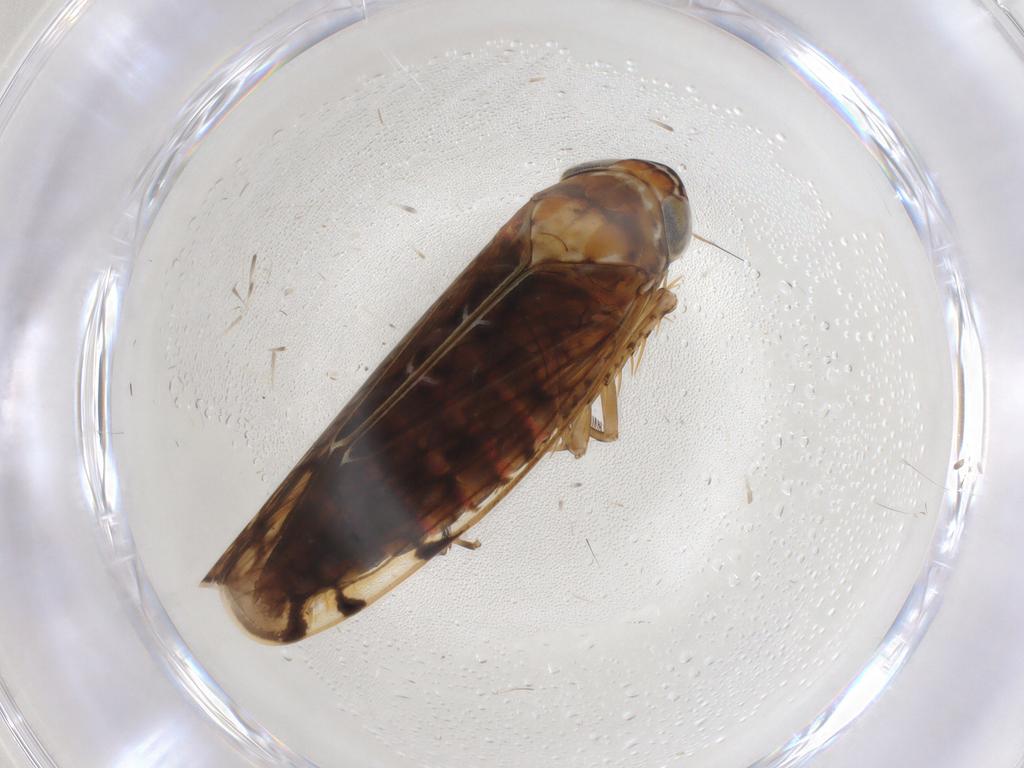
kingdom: Animalia
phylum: Arthropoda
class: Insecta
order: Hemiptera
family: Cicadellidae
